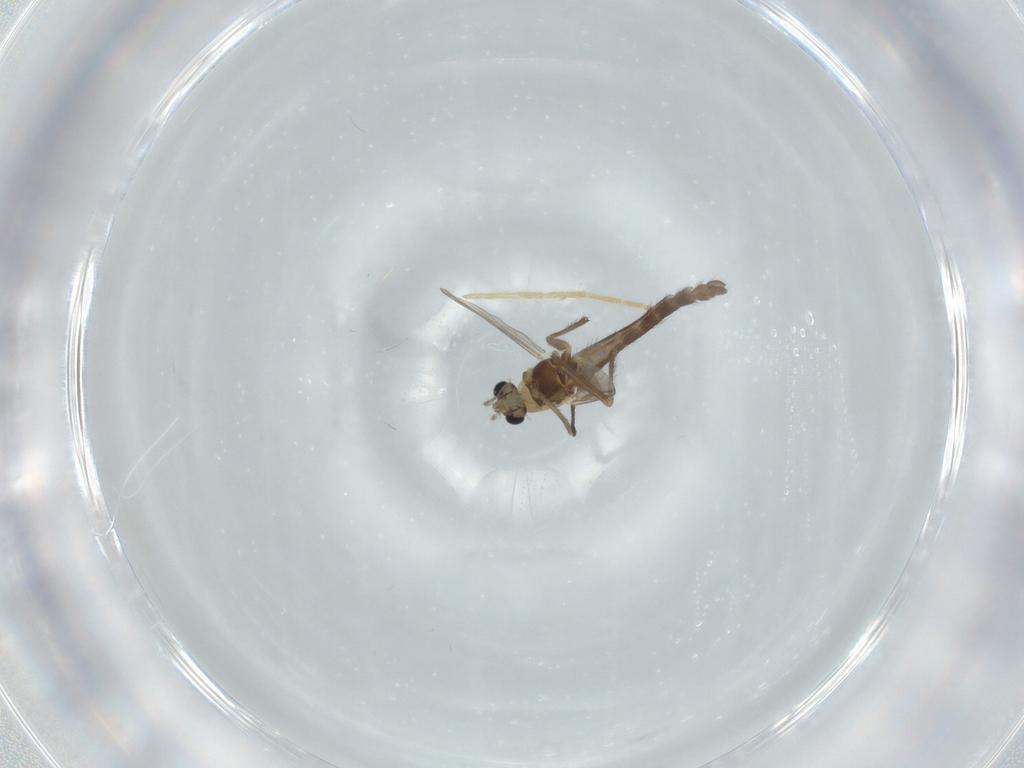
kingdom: Animalia
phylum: Arthropoda
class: Insecta
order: Diptera
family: Chironomidae
